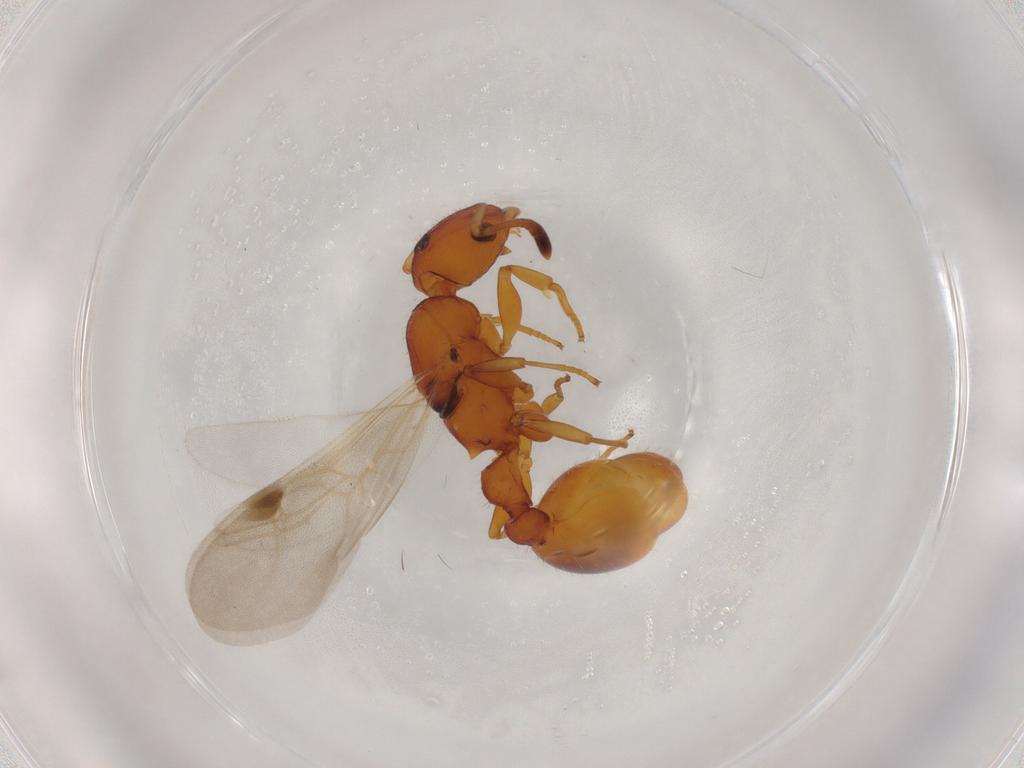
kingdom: Animalia
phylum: Arthropoda
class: Insecta
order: Hymenoptera
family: Formicidae
